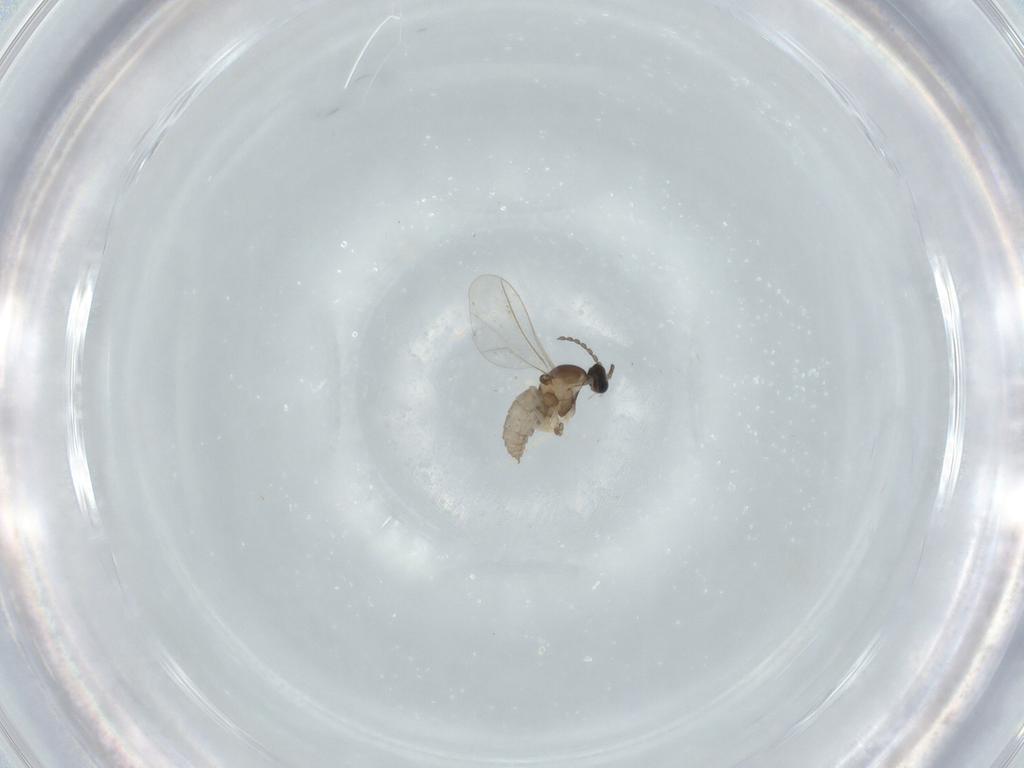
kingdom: Animalia
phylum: Arthropoda
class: Insecta
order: Diptera
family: Cecidomyiidae
